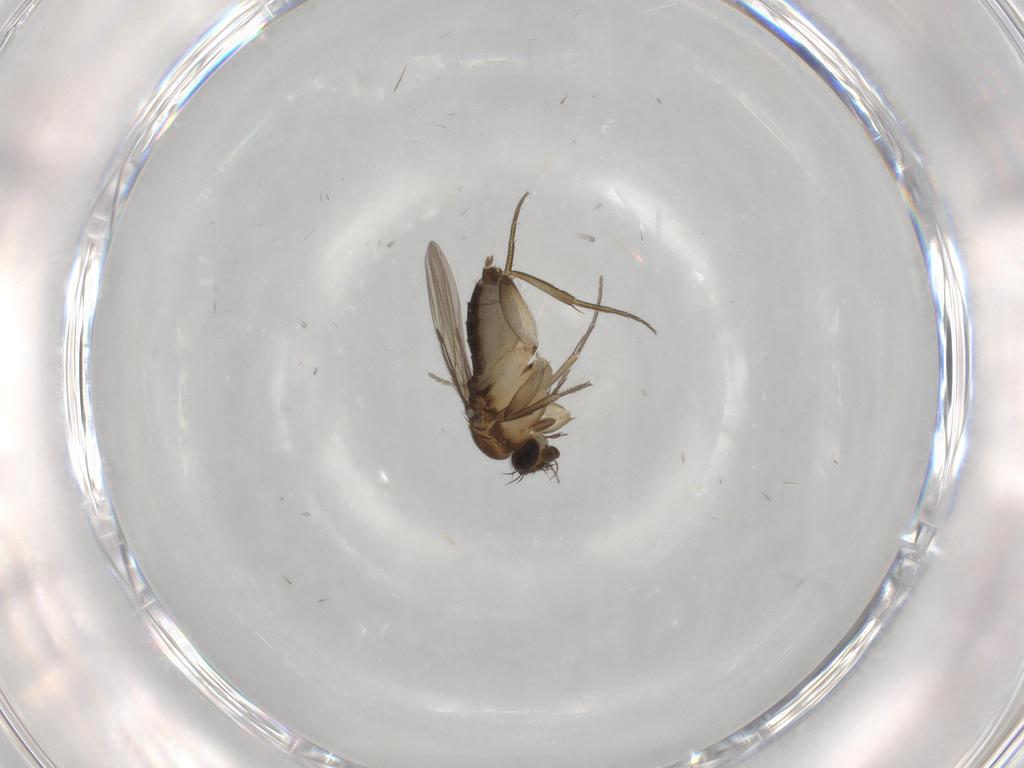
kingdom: Animalia
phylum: Arthropoda
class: Insecta
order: Diptera
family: Phoridae
